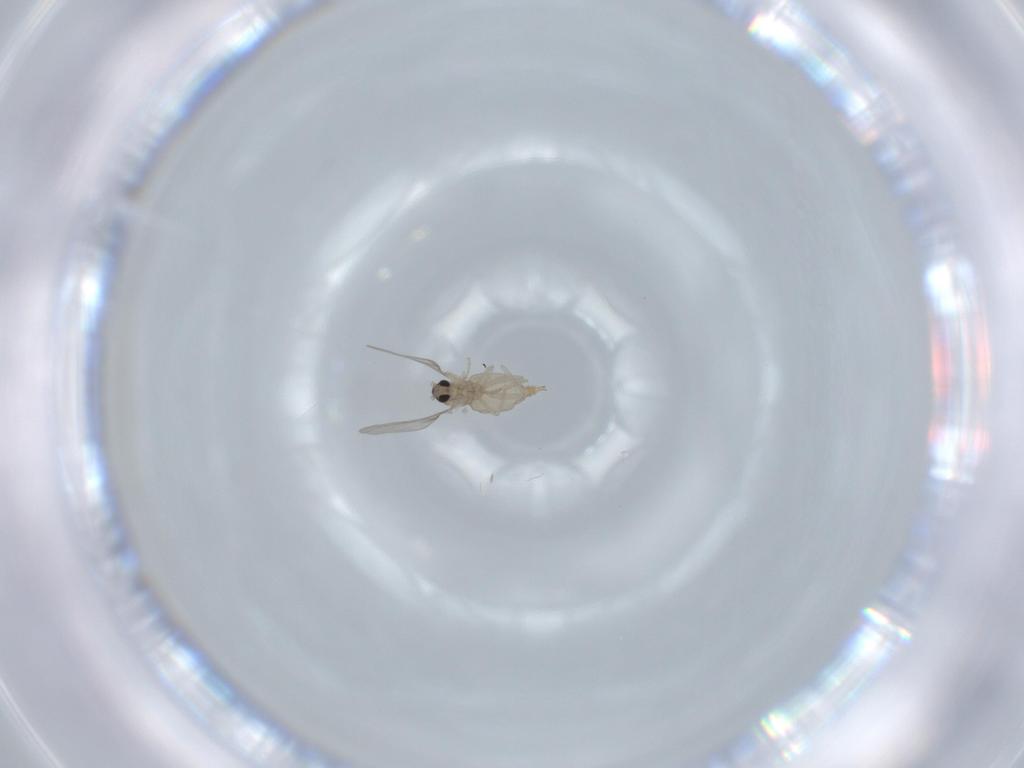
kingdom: Animalia
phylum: Arthropoda
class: Insecta
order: Diptera
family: Cecidomyiidae
